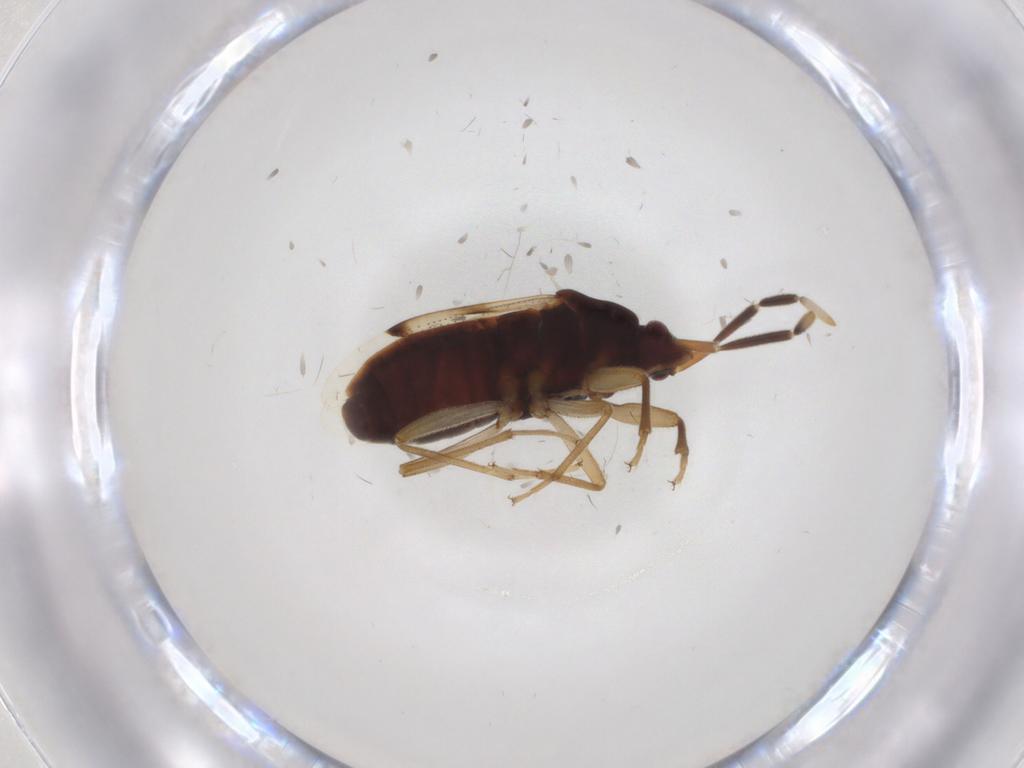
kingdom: Animalia
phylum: Arthropoda
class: Insecta
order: Hemiptera
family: Rhyparochromidae
